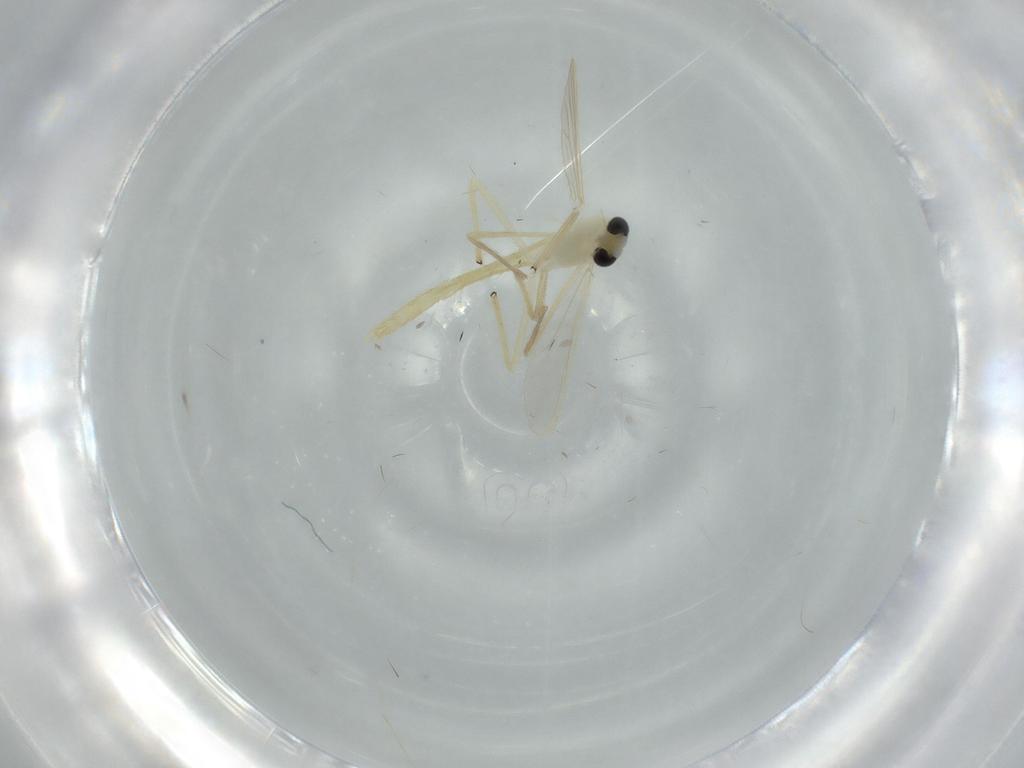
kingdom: Animalia
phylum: Arthropoda
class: Insecta
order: Diptera
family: Chironomidae
